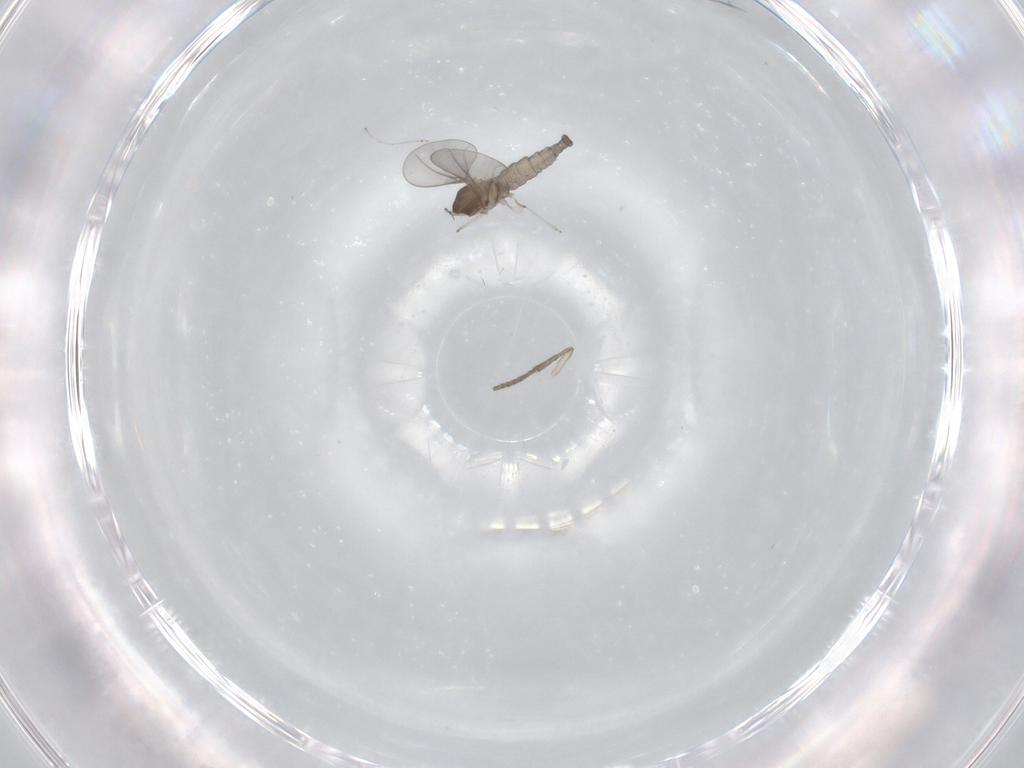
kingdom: Animalia
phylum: Arthropoda
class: Insecta
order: Diptera
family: Cecidomyiidae
